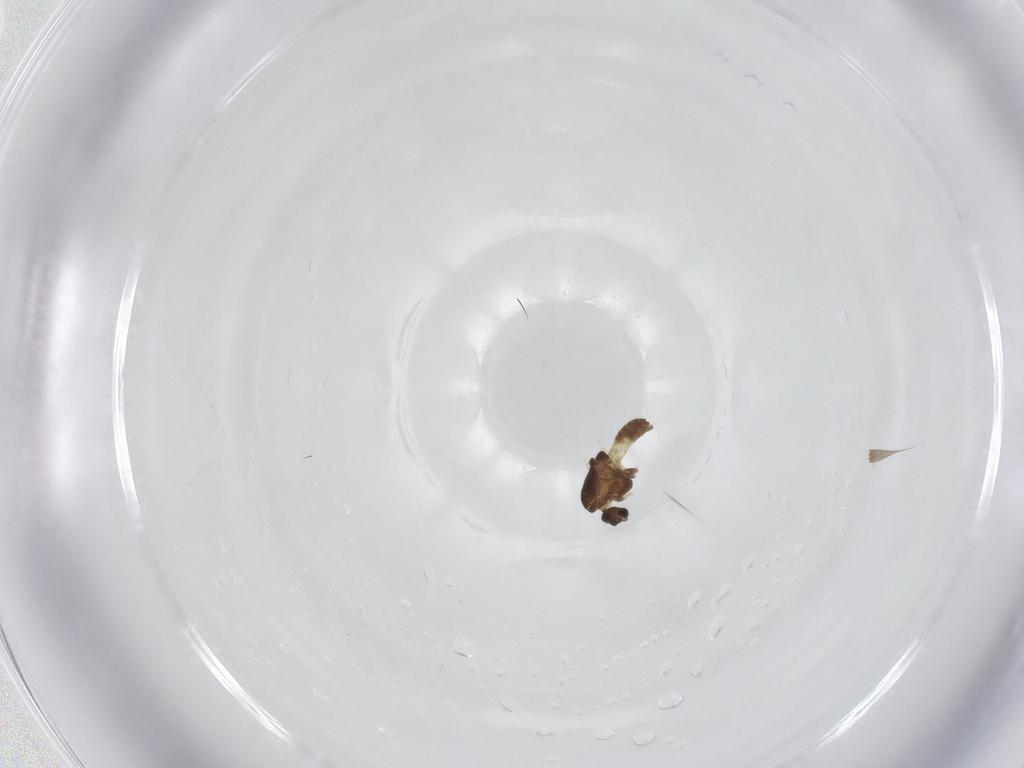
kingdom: Animalia
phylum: Arthropoda
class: Insecta
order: Diptera
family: Chironomidae
